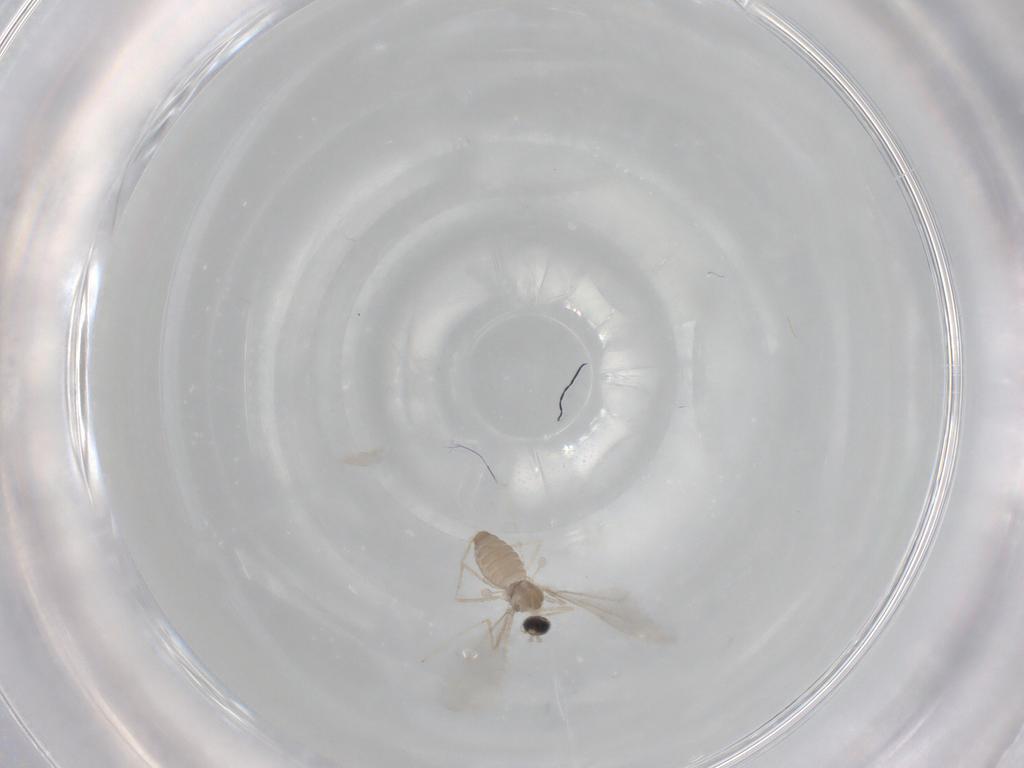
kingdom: Animalia
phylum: Arthropoda
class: Insecta
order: Diptera
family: Cecidomyiidae
